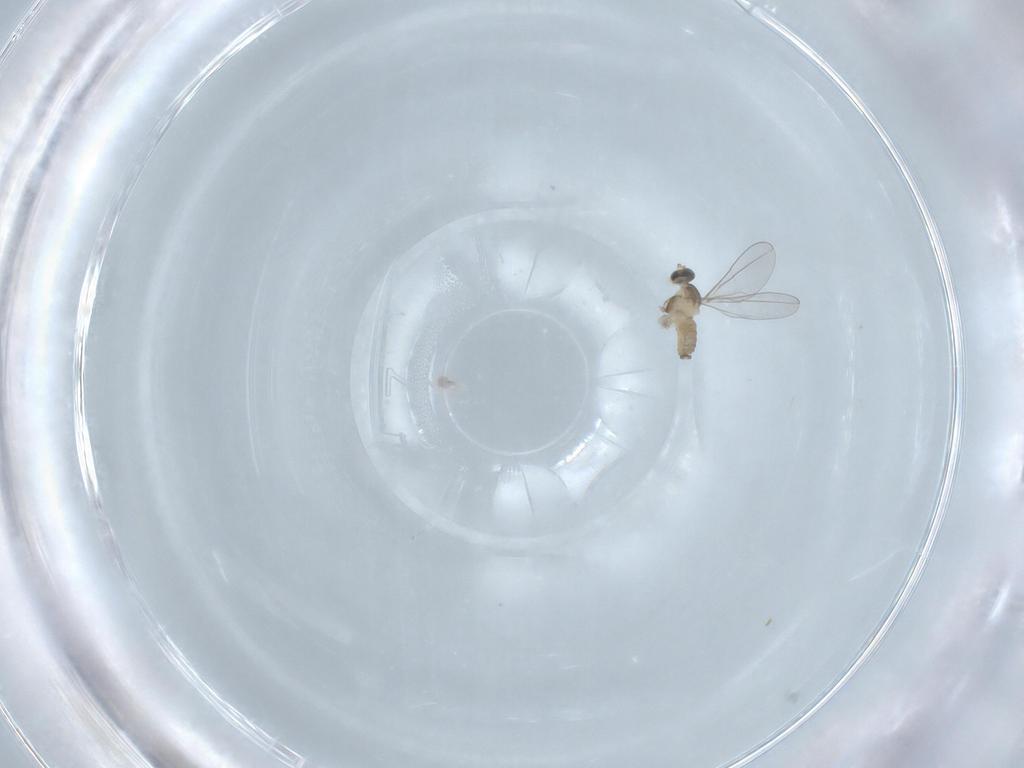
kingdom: Animalia
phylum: Arthropoda
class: Insecta
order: Diptera
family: Cecidomyiidae
